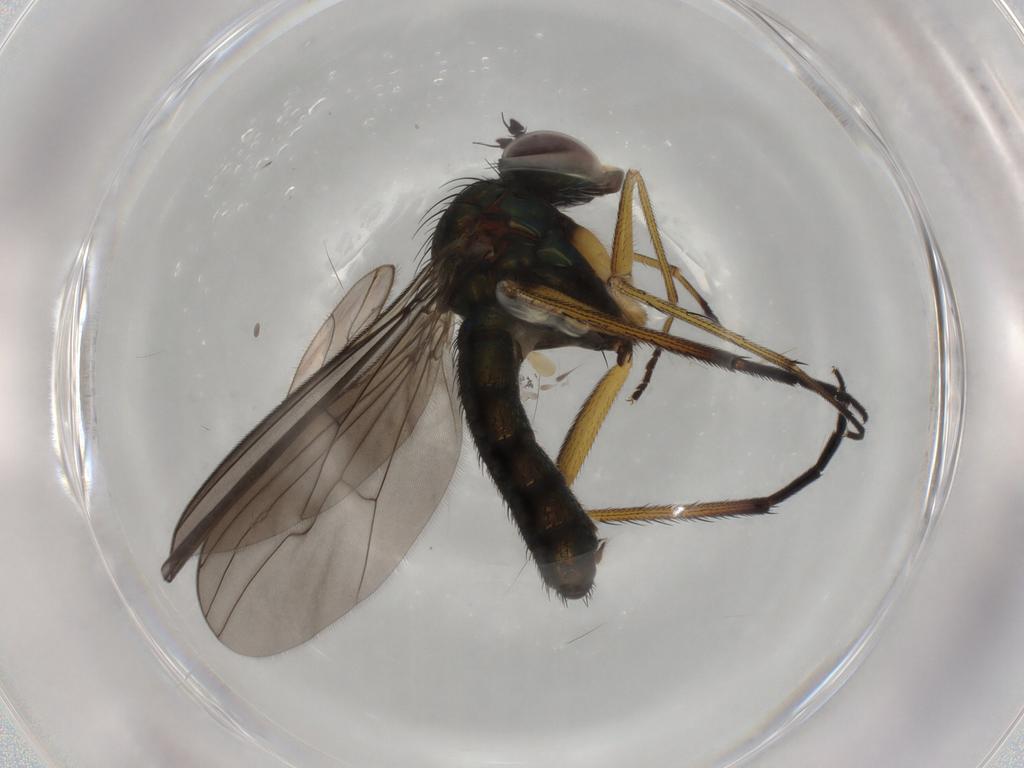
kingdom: Animalia
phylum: Arthropoda
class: Insecta
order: Diptera
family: Dolichopodidae
